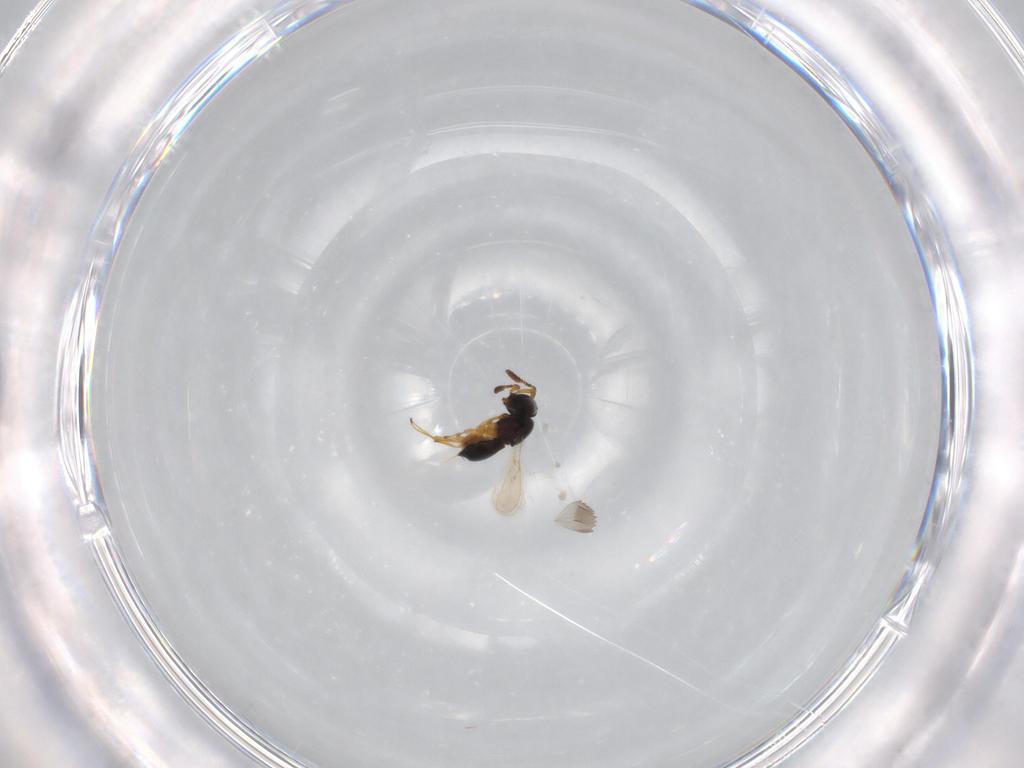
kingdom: Animalia
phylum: Arthropoda
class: Insecta
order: Hymenoptera
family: Scelionidae
